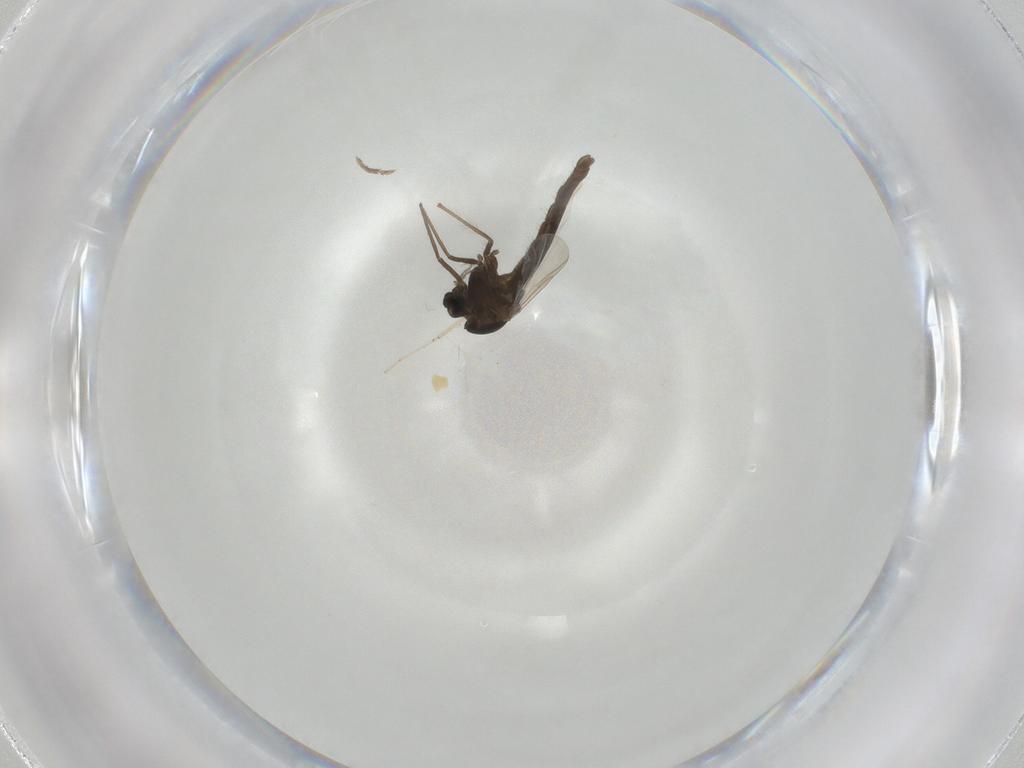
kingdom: Animalia
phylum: Arthropoda
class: Insecta
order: Diptera
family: Chironomidae
